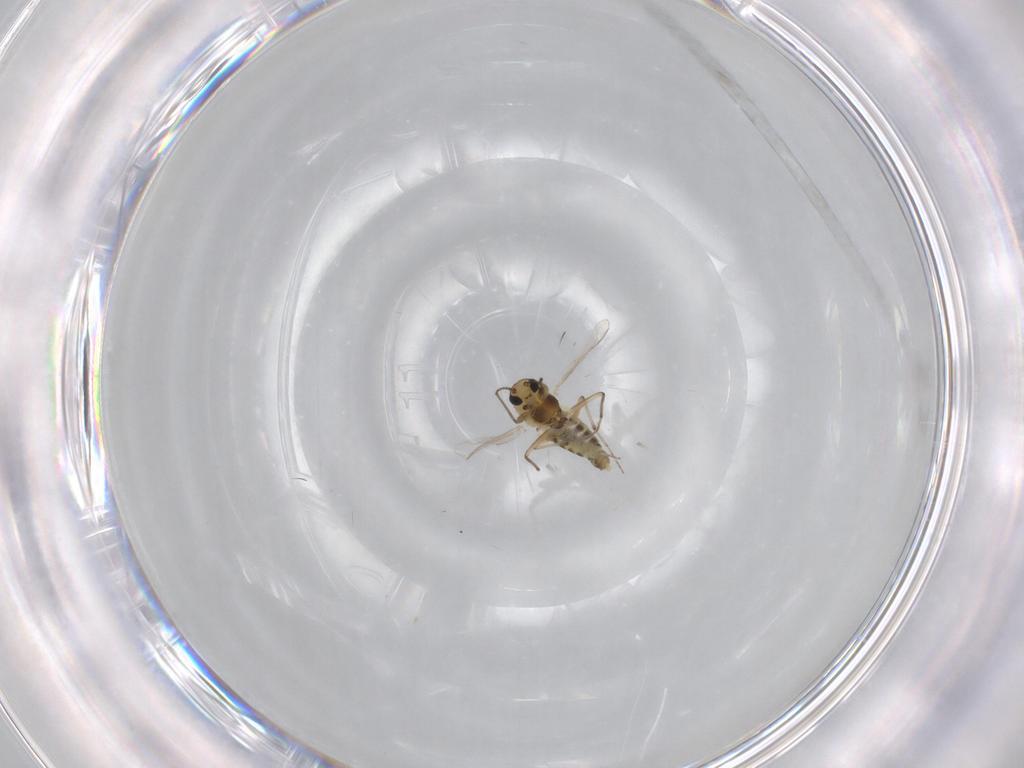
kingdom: Animalia
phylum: Arthropoda
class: Insecta
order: Diptera
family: Chironomidae
